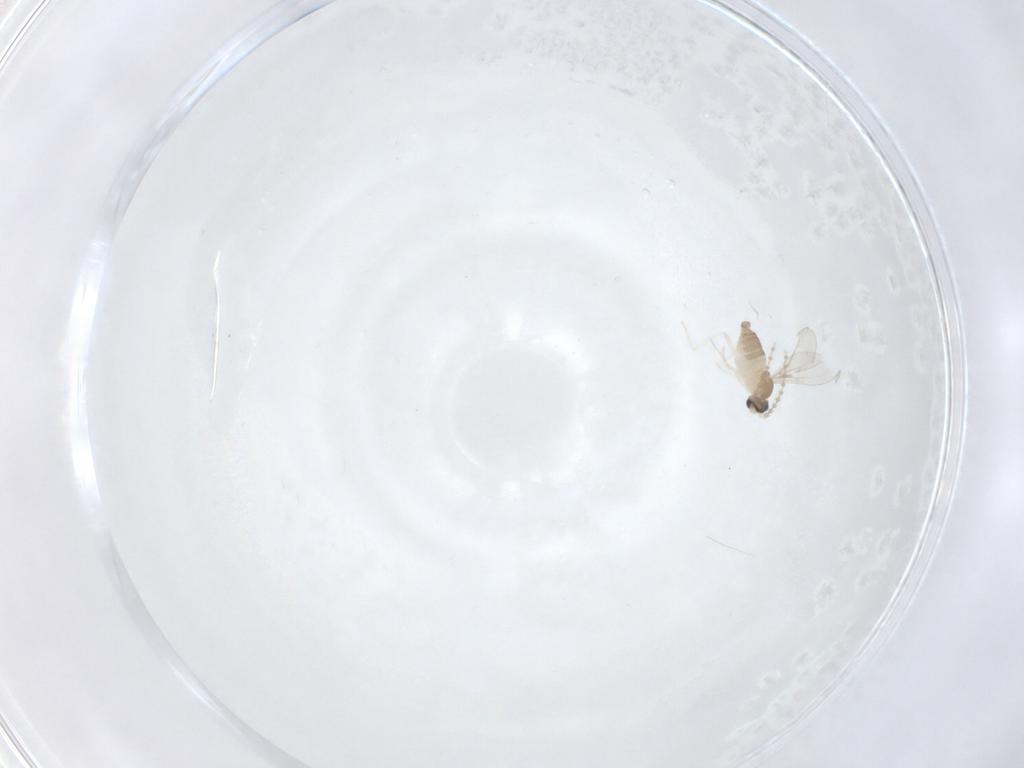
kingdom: Animalia
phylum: Arthropoda
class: Insecta
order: Diptera
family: Cecidomyiidae
